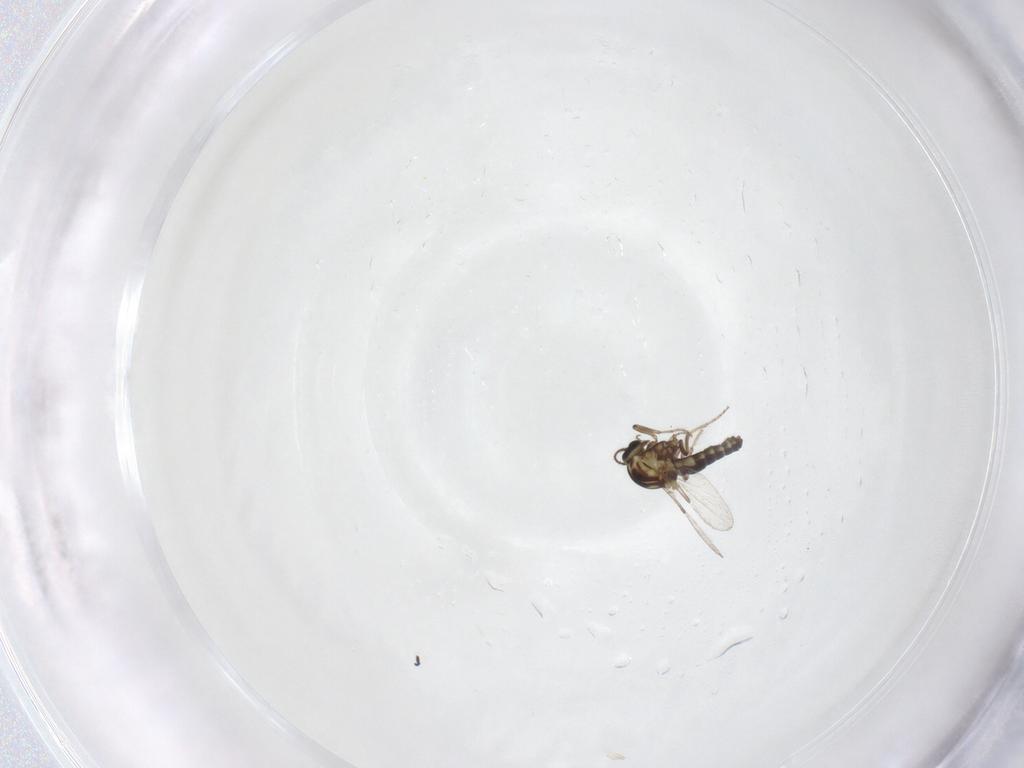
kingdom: Animalia
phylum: Arthropoda
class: Insecta
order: Diptera
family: Ceratopogonidae
